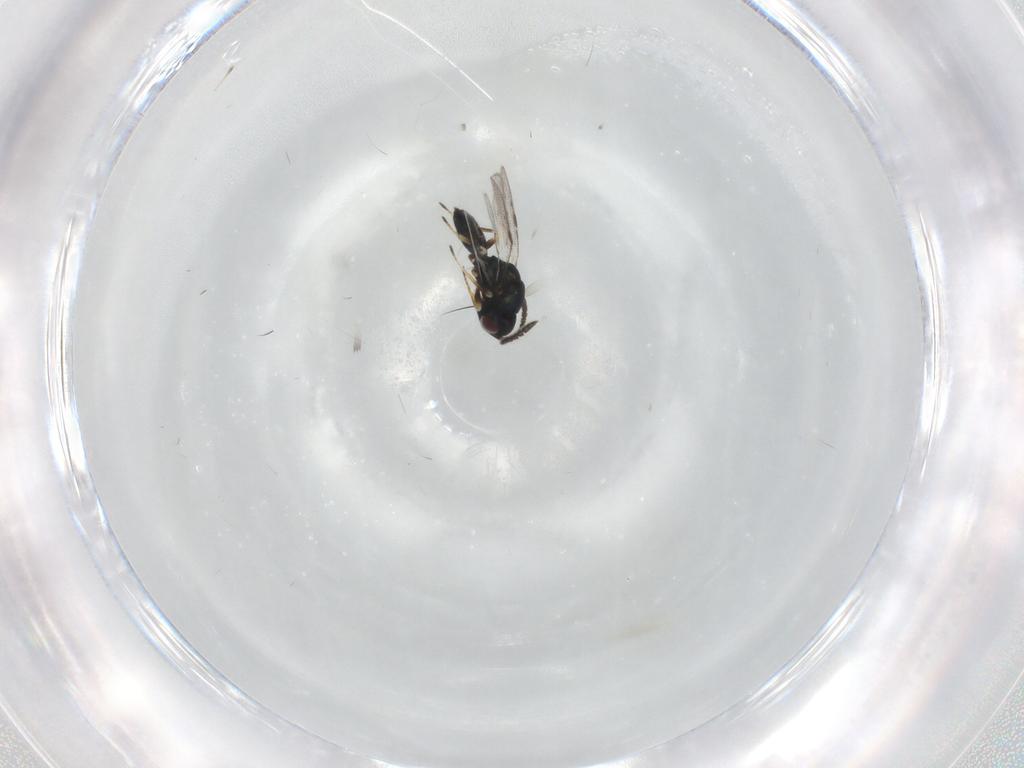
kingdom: Animalia
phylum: Arthropoda
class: Insecta
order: Hymenoptera
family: Pteromalidae
